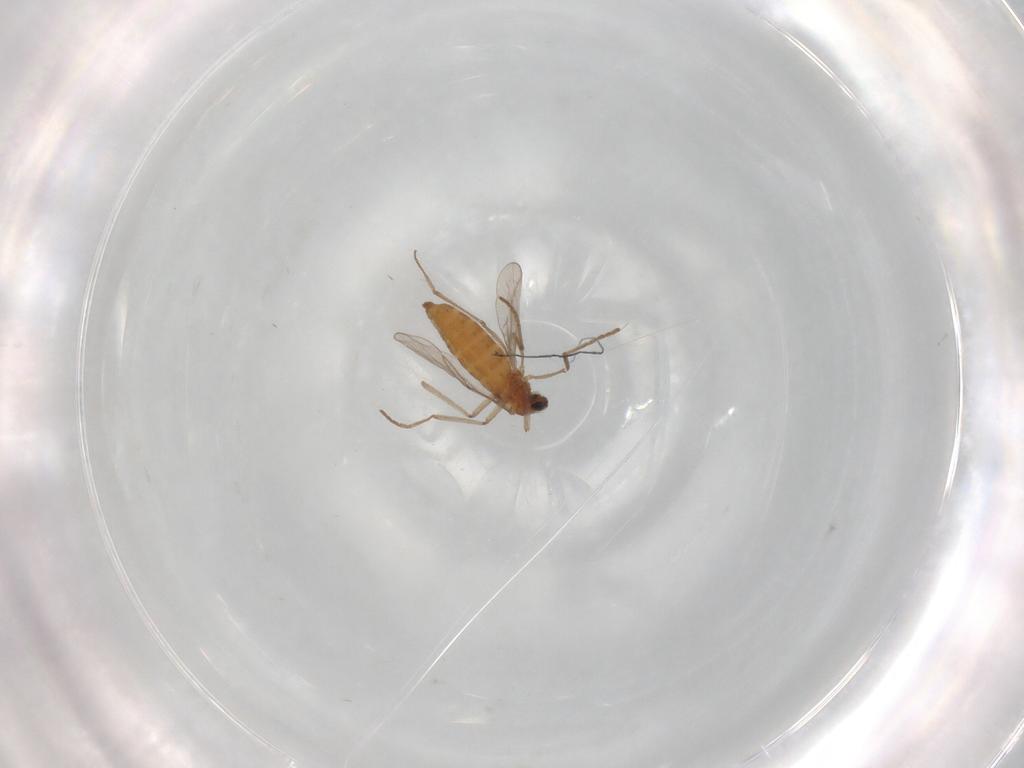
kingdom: Animalia
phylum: Arthropoda
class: Insecta
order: Diptera
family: Cecidomyiidae
